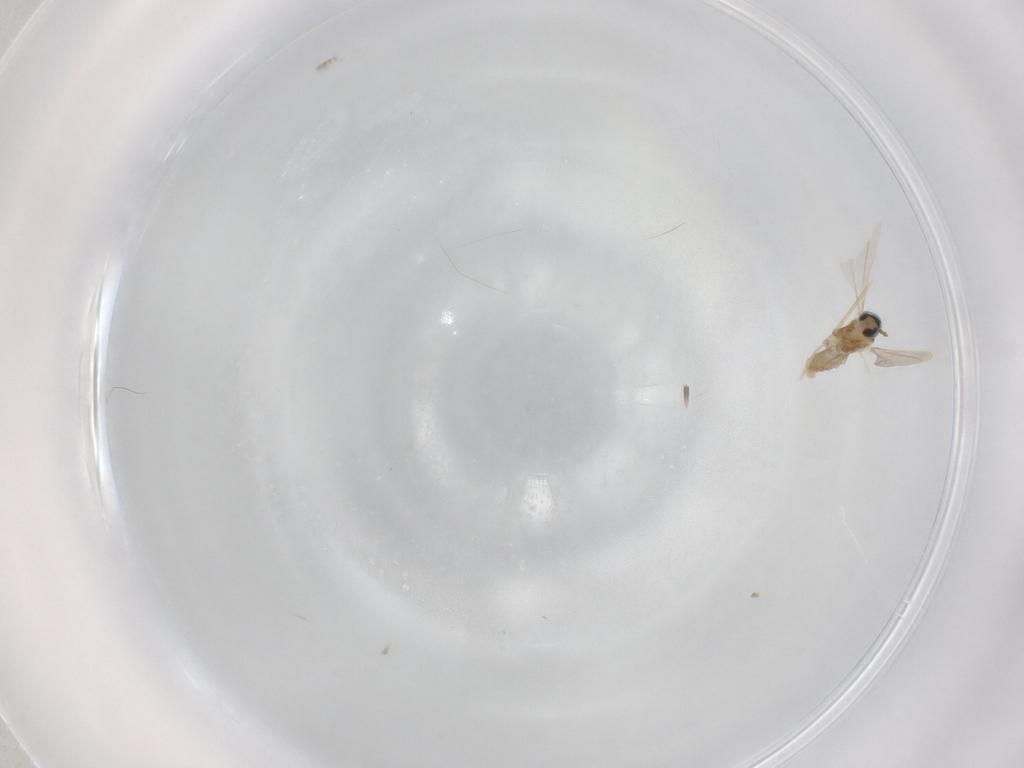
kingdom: Animalia
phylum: Arthropoda
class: Insecta
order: Diptera
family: Cecidomyiidae
